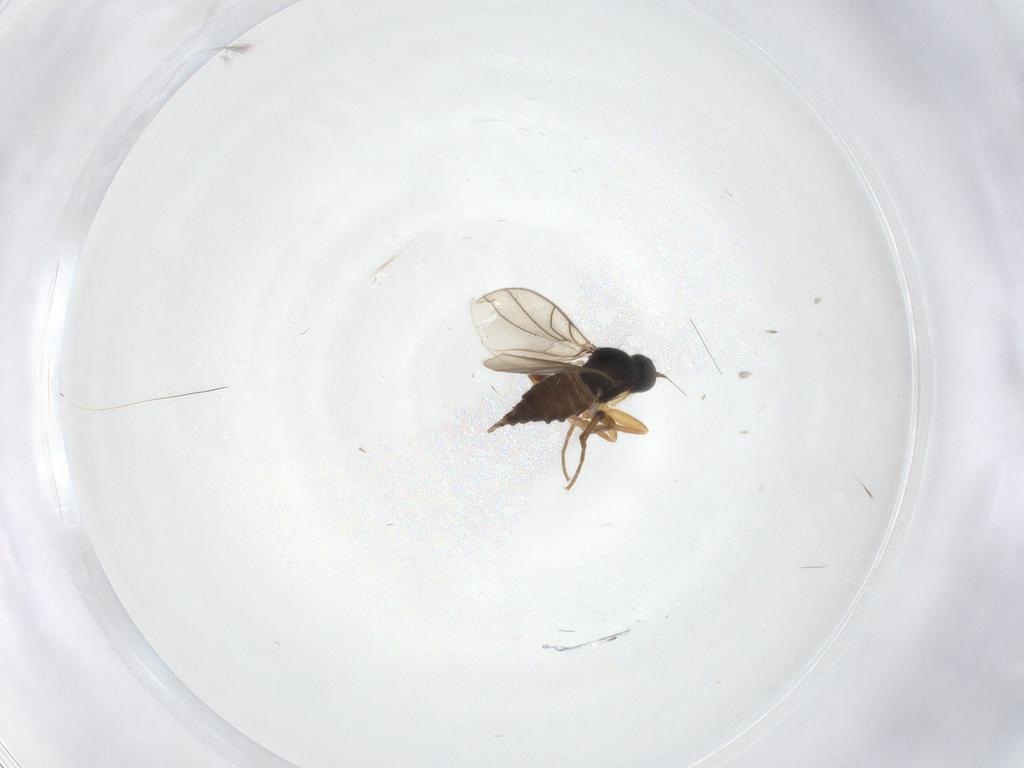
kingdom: Animalia
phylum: Arthropoda
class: Insecta
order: Diptera
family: Hybotidae
